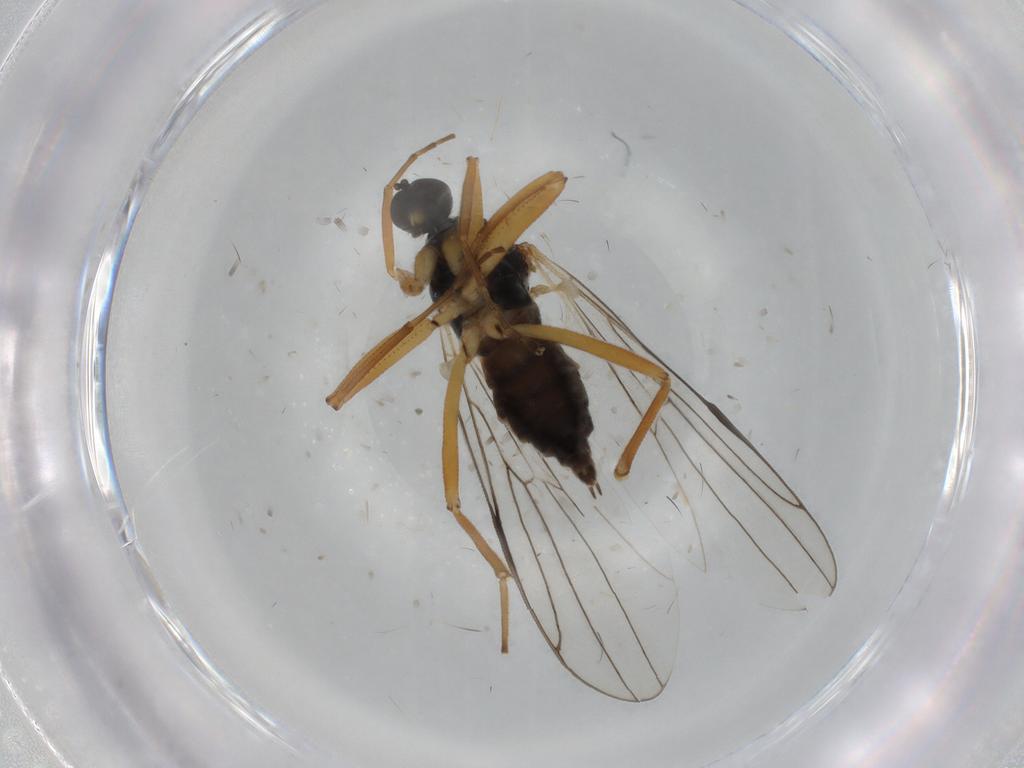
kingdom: Animalia
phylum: Arthropoda
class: Insecta
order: Diptera
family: Hybotidae
